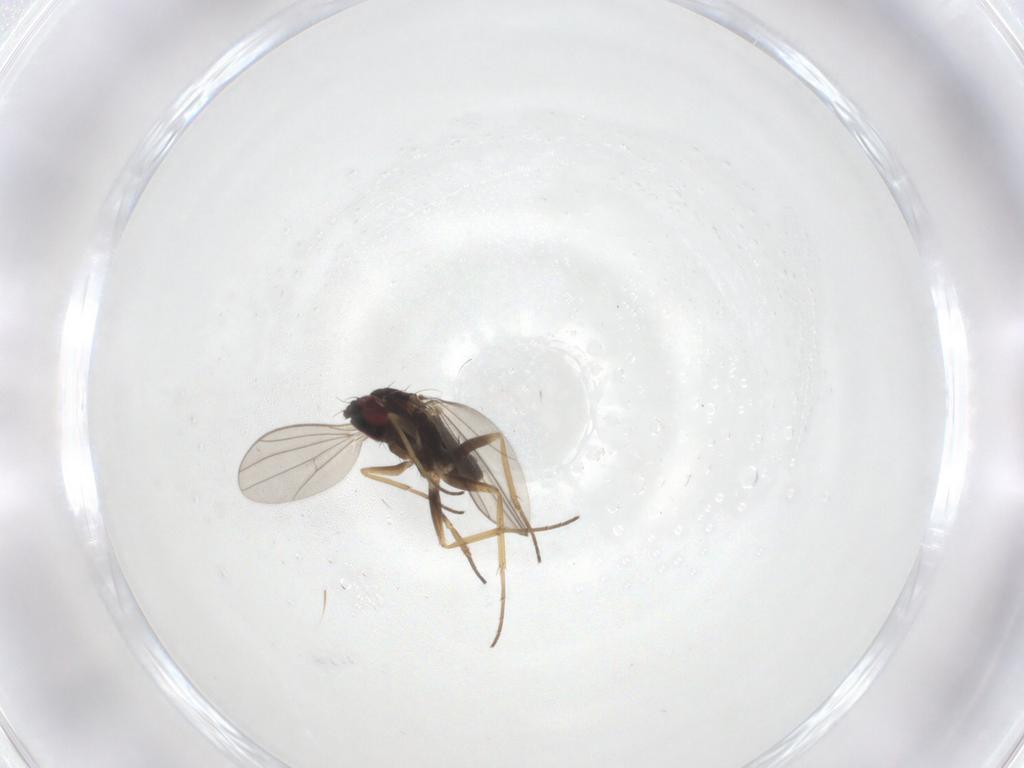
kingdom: Animalia
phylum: Arthropoda
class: Insecta
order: Diptera
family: Dolichopodidae
